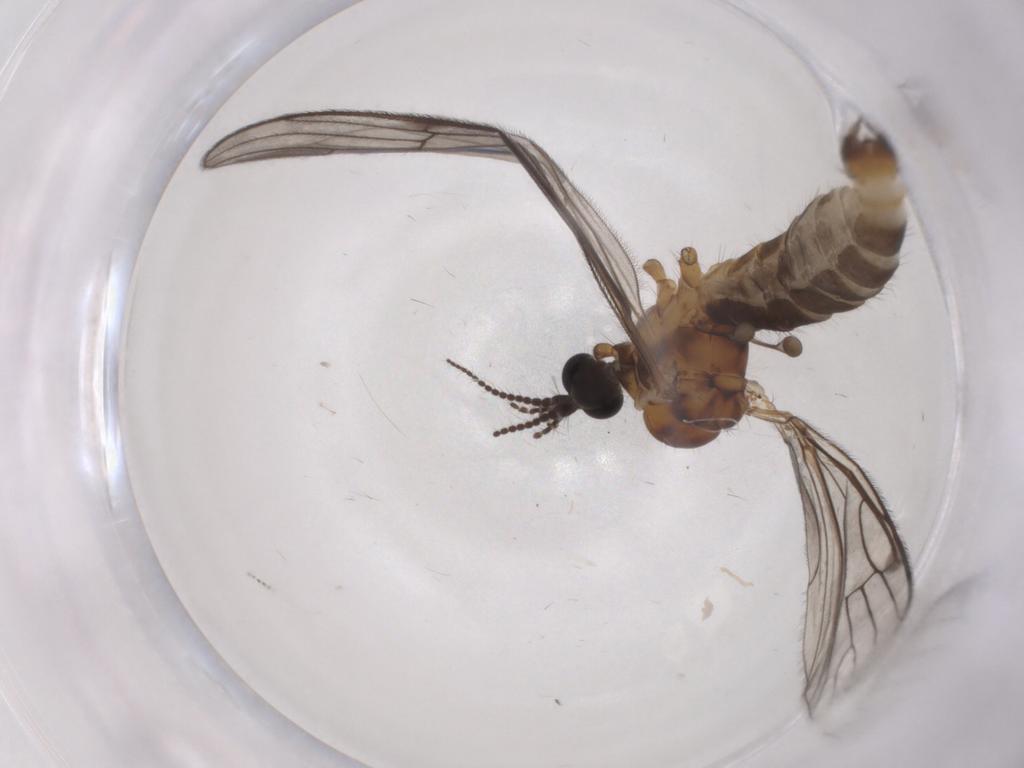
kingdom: Animalia
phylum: Arthropoda
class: Insecta
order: Diptera
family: Agromyzidae
